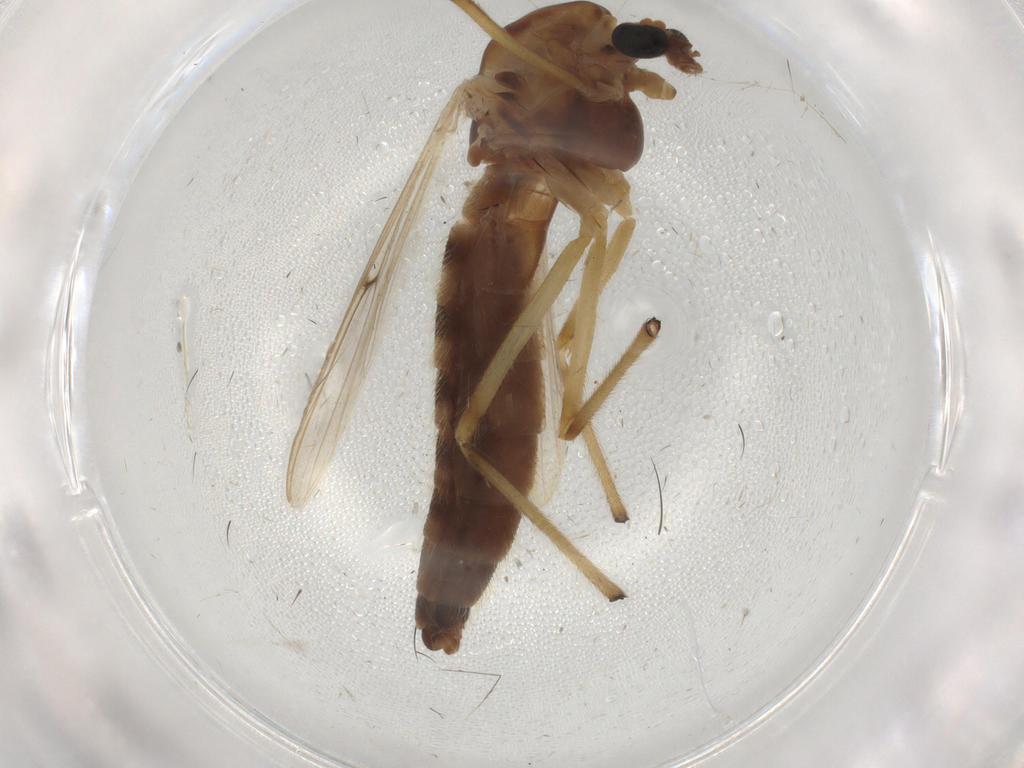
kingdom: Animalia
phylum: Arthropoda
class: Insecta
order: Diptera
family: Chironomidae
